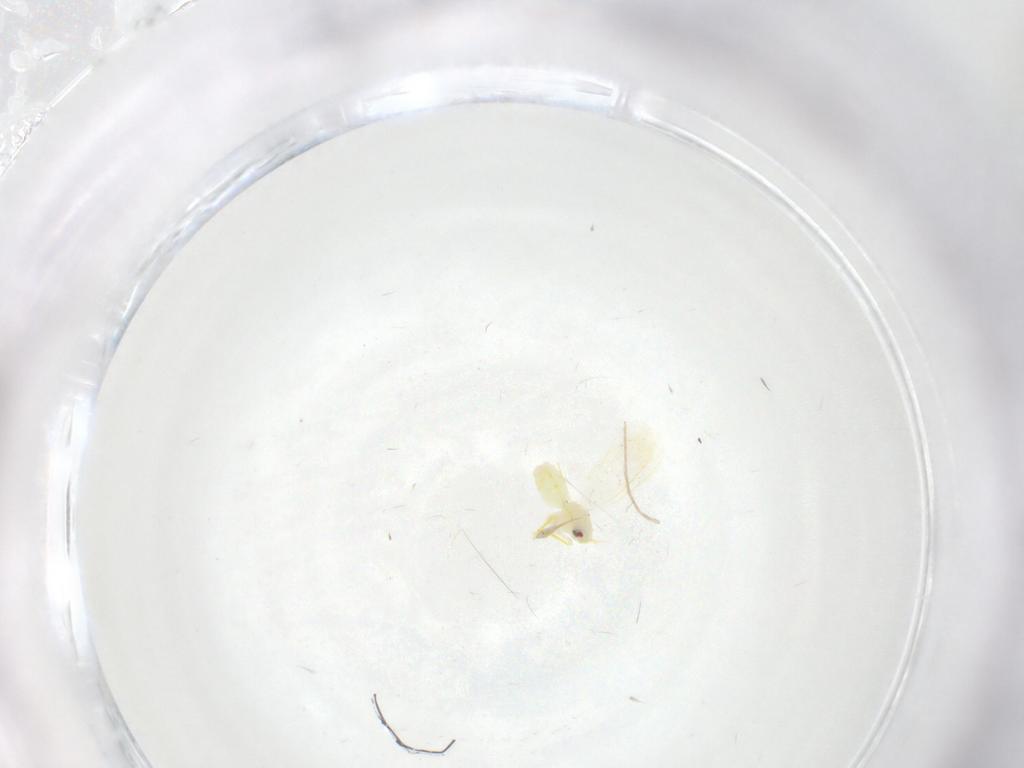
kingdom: Animalia
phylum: Arthropoda
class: Insecta
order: Hemiptera
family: Aleyrodidae
